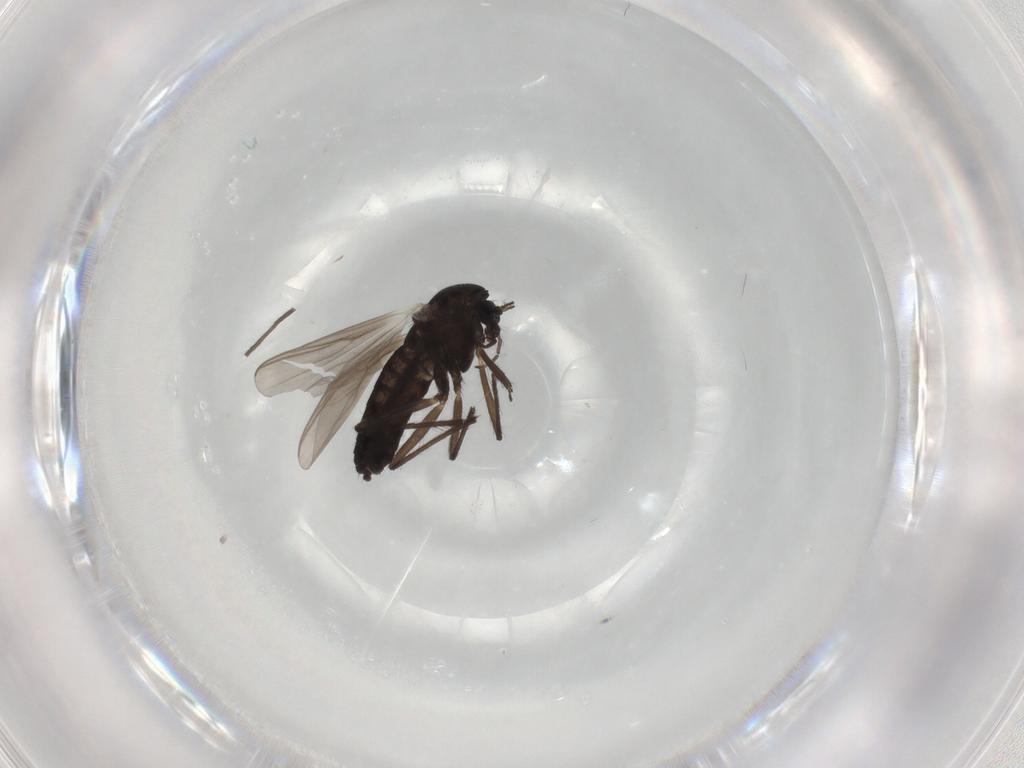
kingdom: Animalia
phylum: Arthropoda
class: Insecta
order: Diptera
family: Chironomidae
